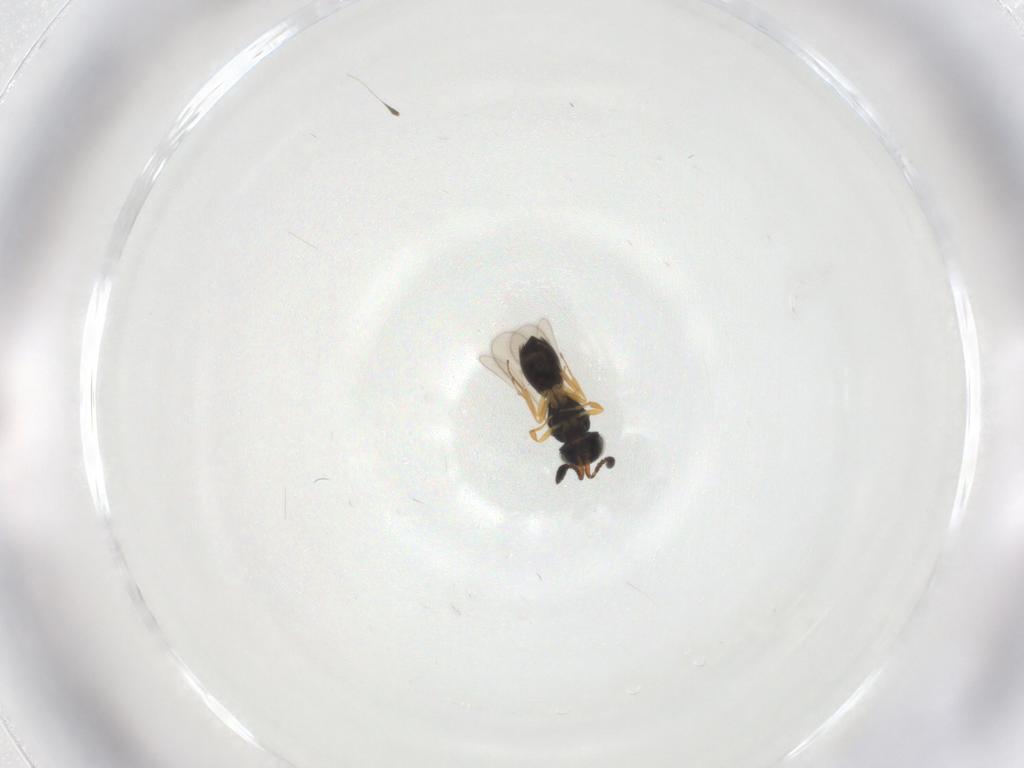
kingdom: Animalia
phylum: Arthropoda
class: Insecta
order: Hymenoptera
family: Scelionidae
